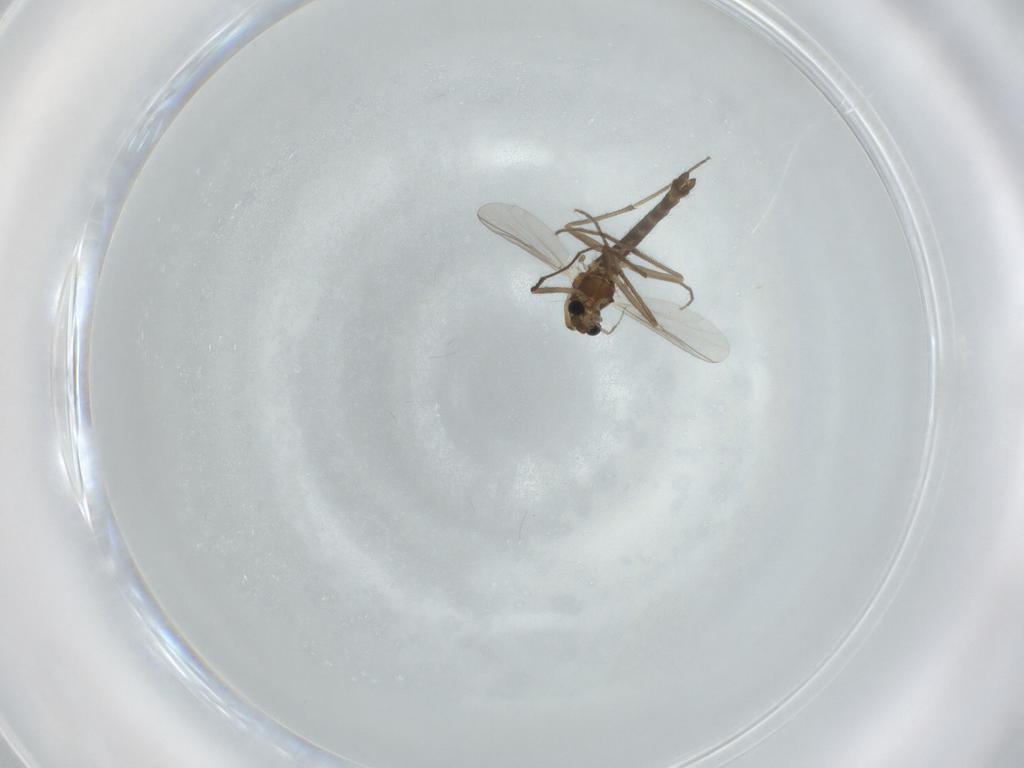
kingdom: Animalia
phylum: Arthropoda
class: Insecta
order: Diptera
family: Chironomidae
